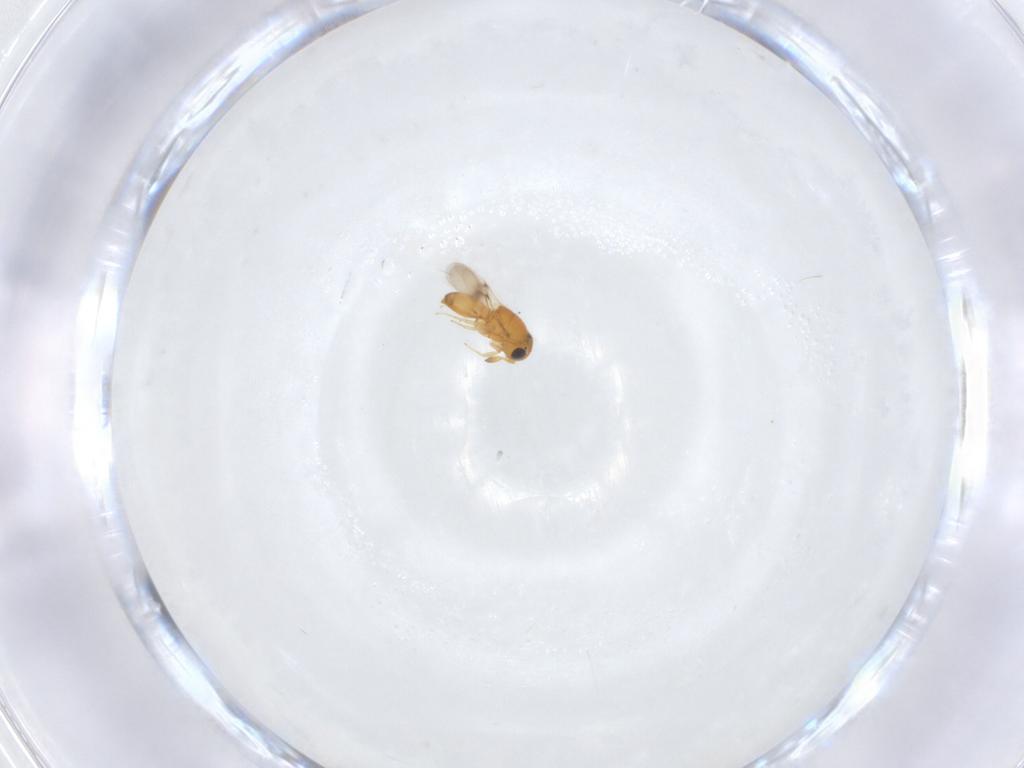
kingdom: Animalia
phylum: Arthropoda
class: Insecta
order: Hymenoptera
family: Scelionidae
